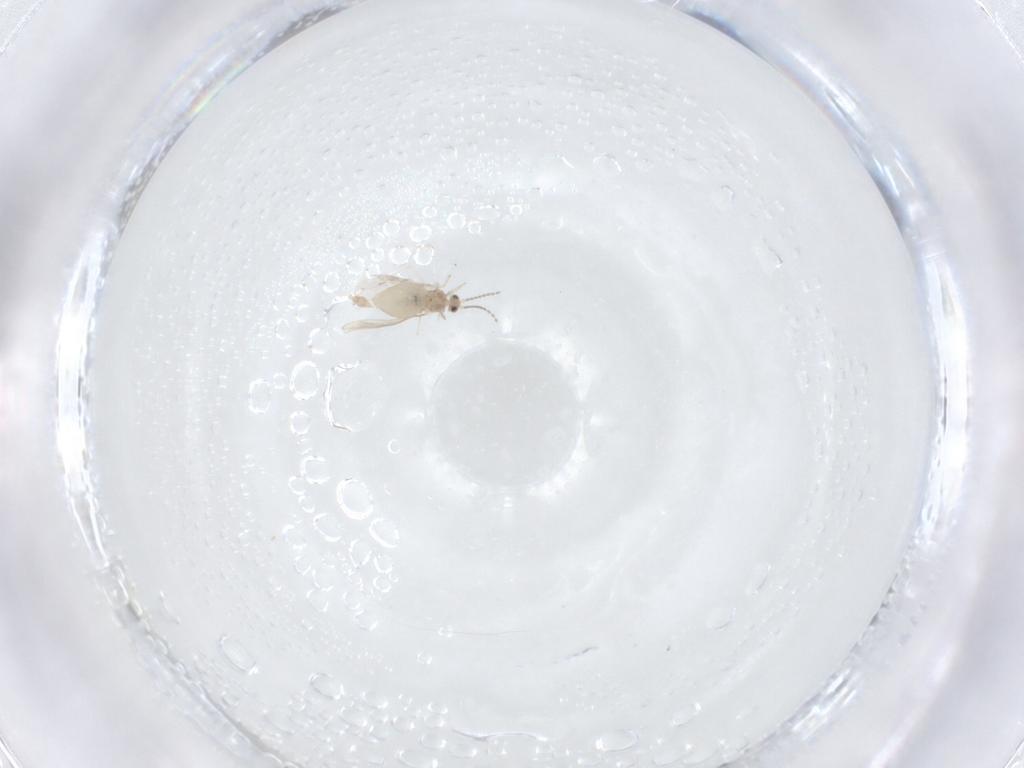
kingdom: Animalia
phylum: Arthropoda
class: Insecta
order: Diptera
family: Cecidomyiidae
